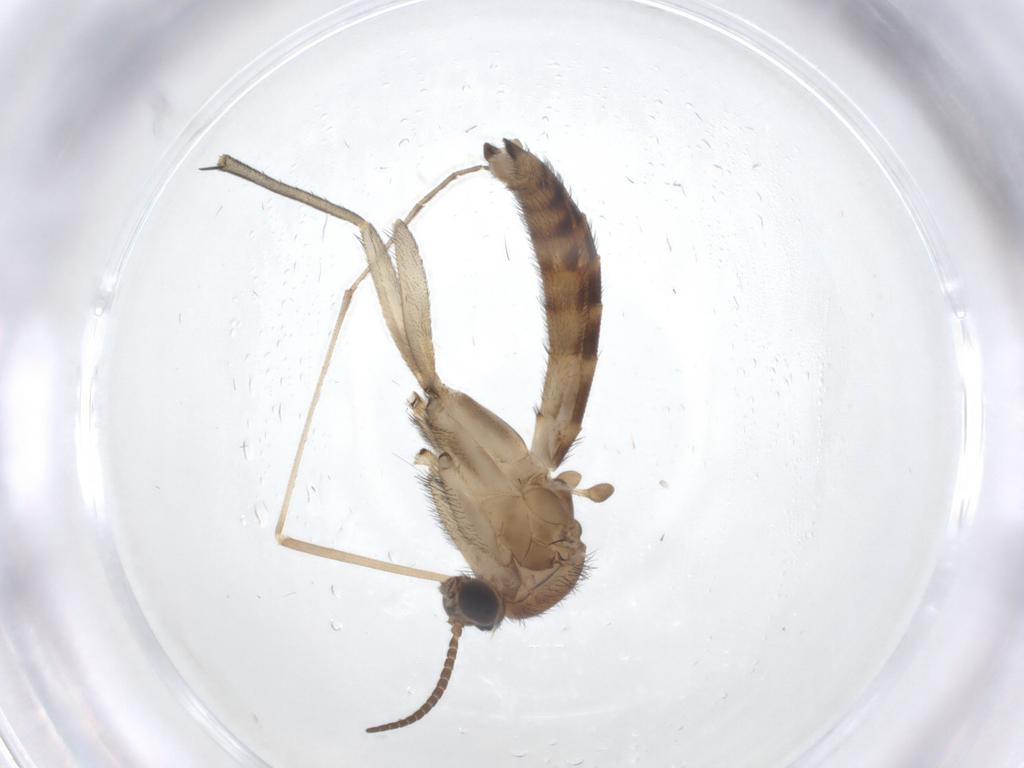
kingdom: Animalia
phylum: Arthropoda
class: Insecta
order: Diptera
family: Keroplatidae
